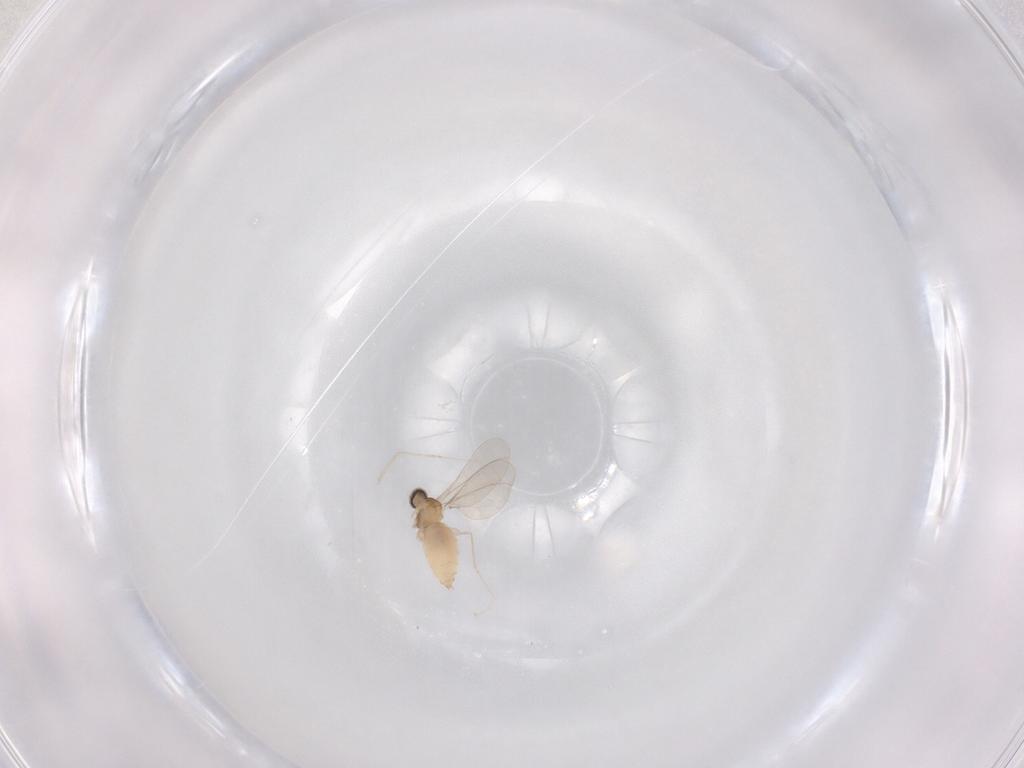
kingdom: Animalia
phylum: Arthropoda
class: Insecta
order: Diptera
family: Cecidomyiidae
